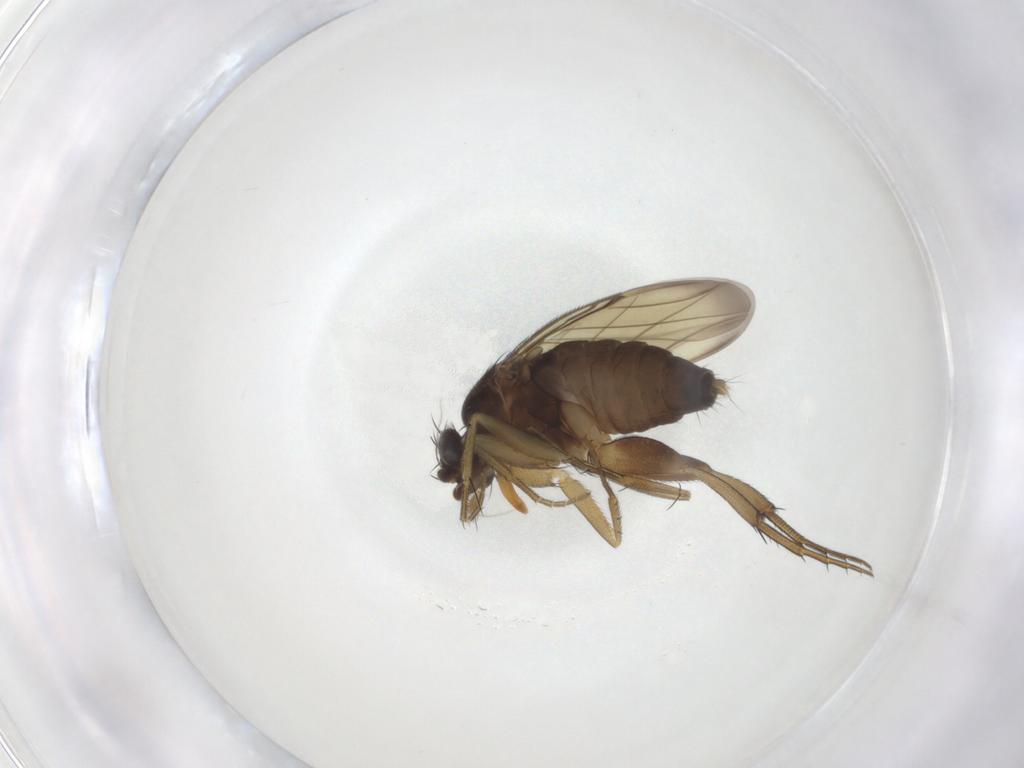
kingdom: Animalia
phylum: Arthropoda
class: Insecta
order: Diptera
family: Phoridae
